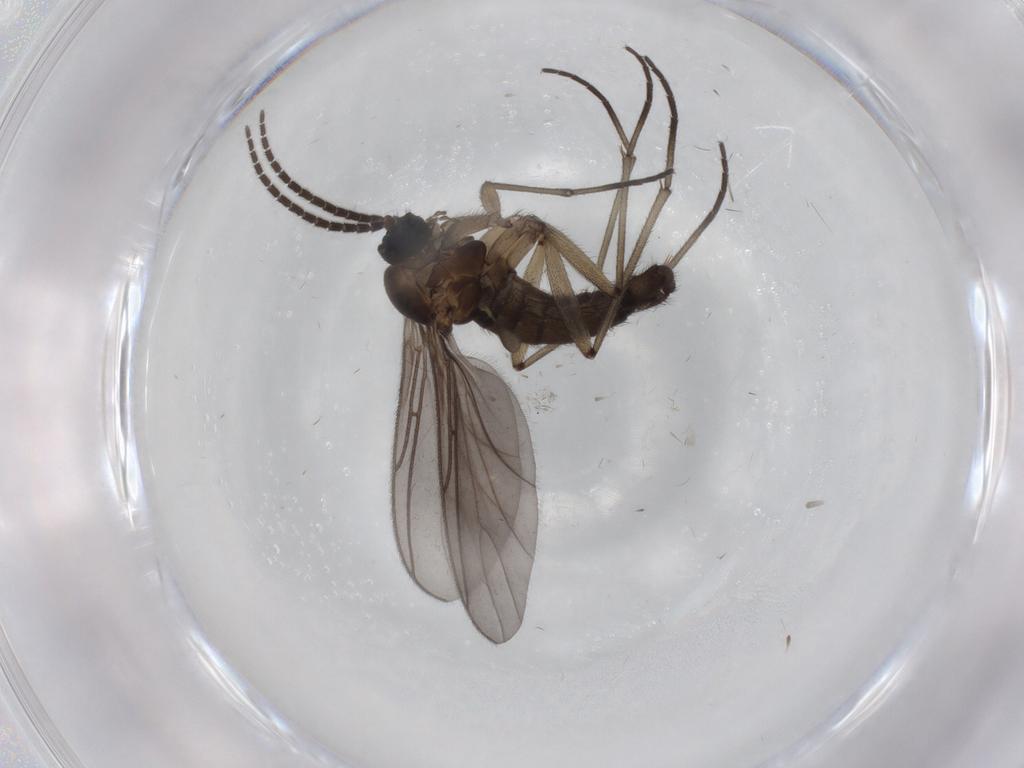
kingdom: Animalia
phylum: Arthropoda
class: Insecta
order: Diptera
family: Sciaridae
